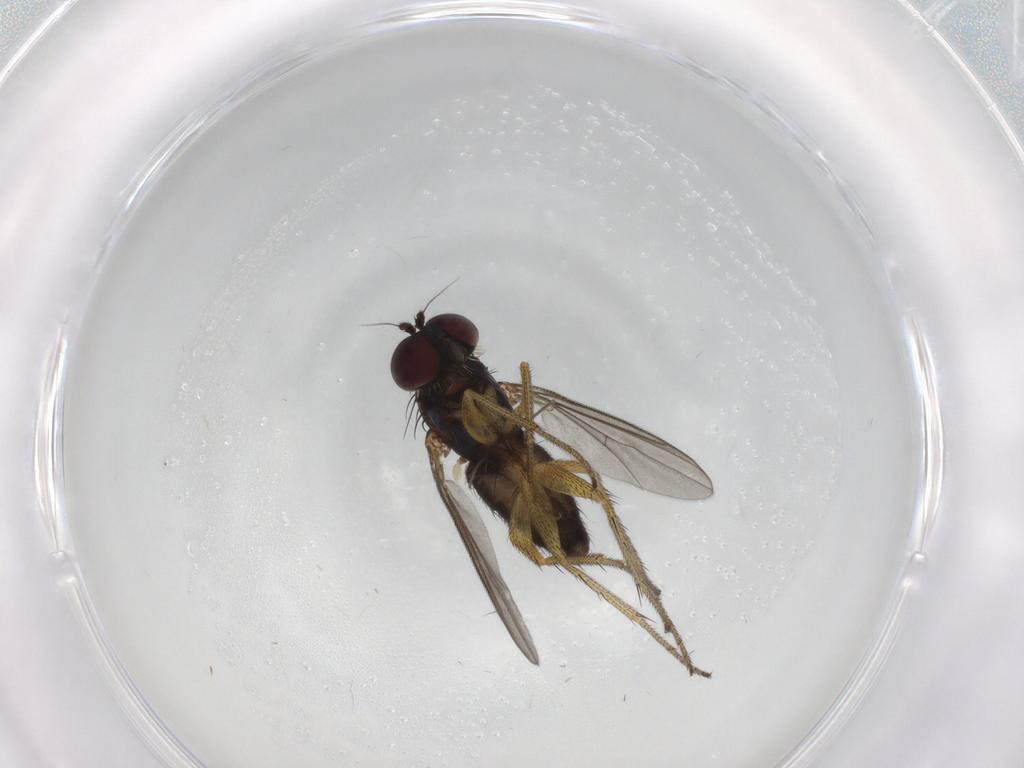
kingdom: Animalia
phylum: Arthropoda
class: Insecta
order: Diptera
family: Chironomidae
